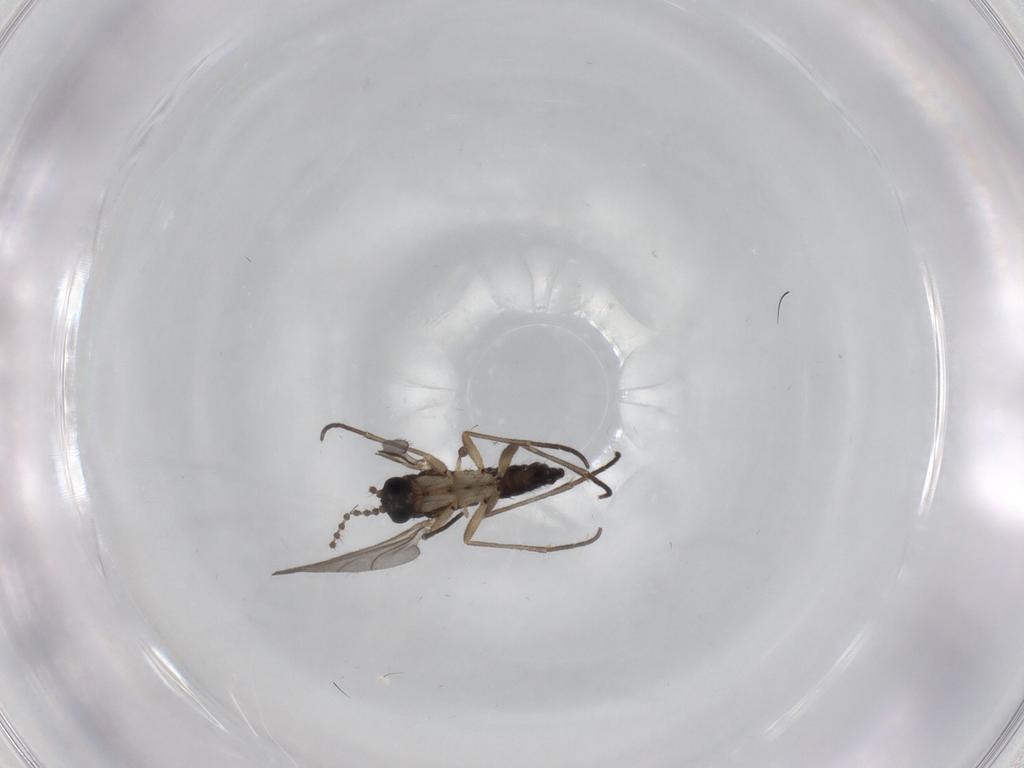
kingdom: Animalia
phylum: Arthropoda
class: Insecta
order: Diptera
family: Sciaridae
